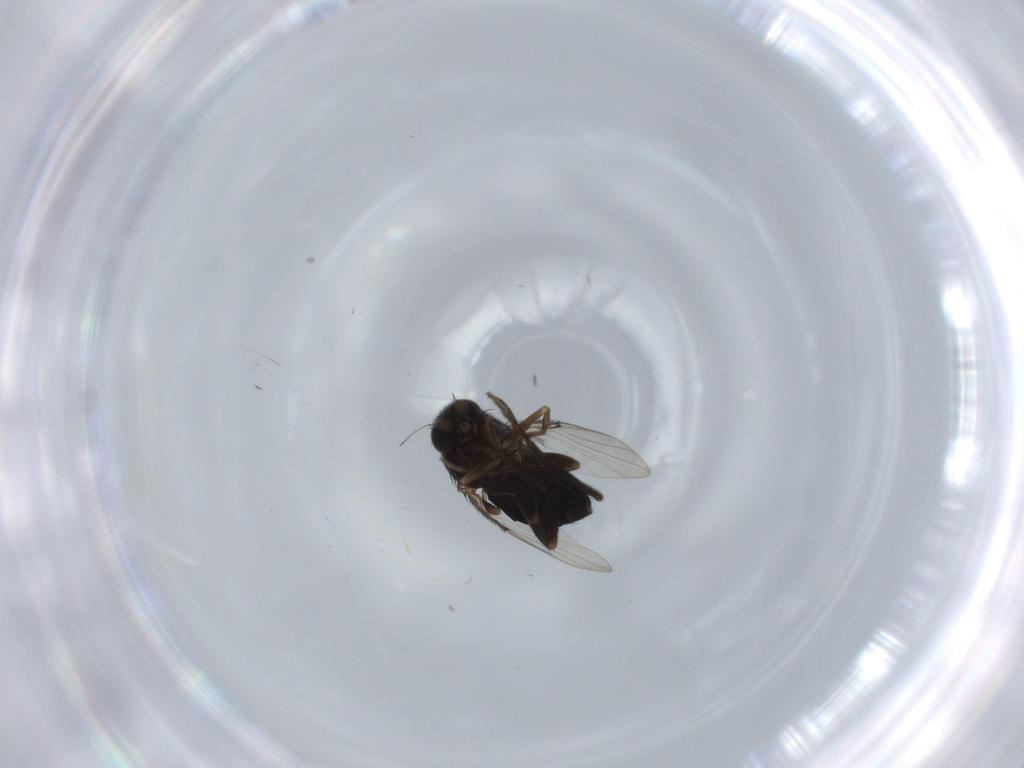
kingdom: Animalia
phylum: Arthropoda
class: Insecta
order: Diptera
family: Phoridae
